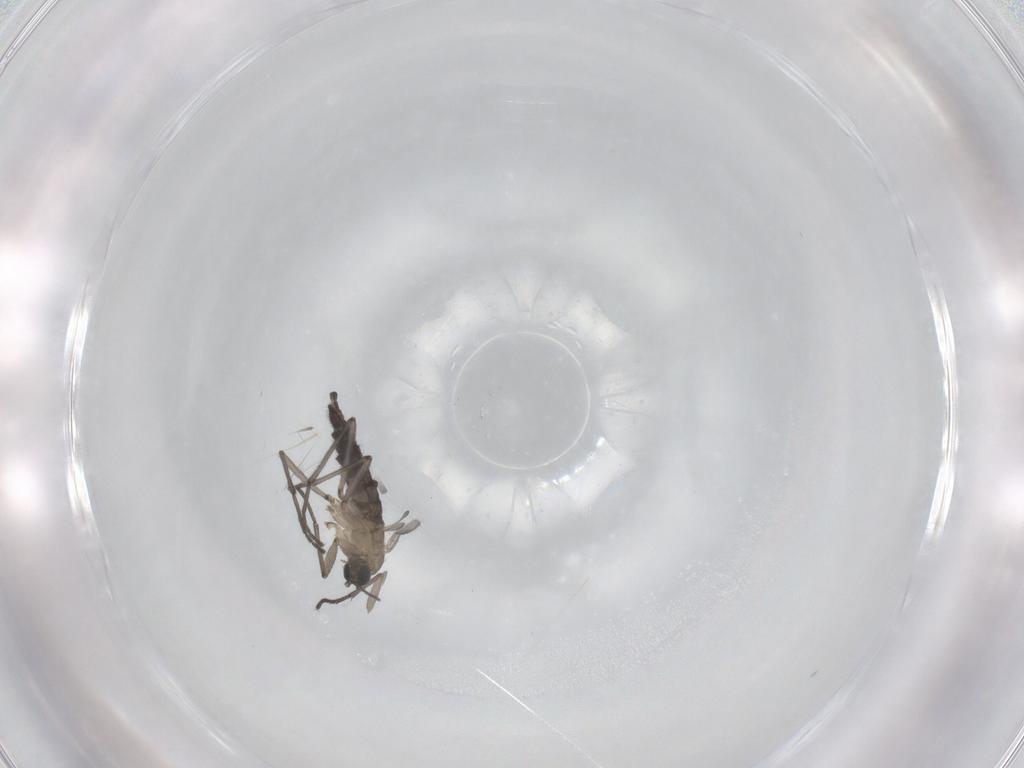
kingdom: Animalia
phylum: Arthropoda
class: Insecta
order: Diptera
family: Sciaridae
